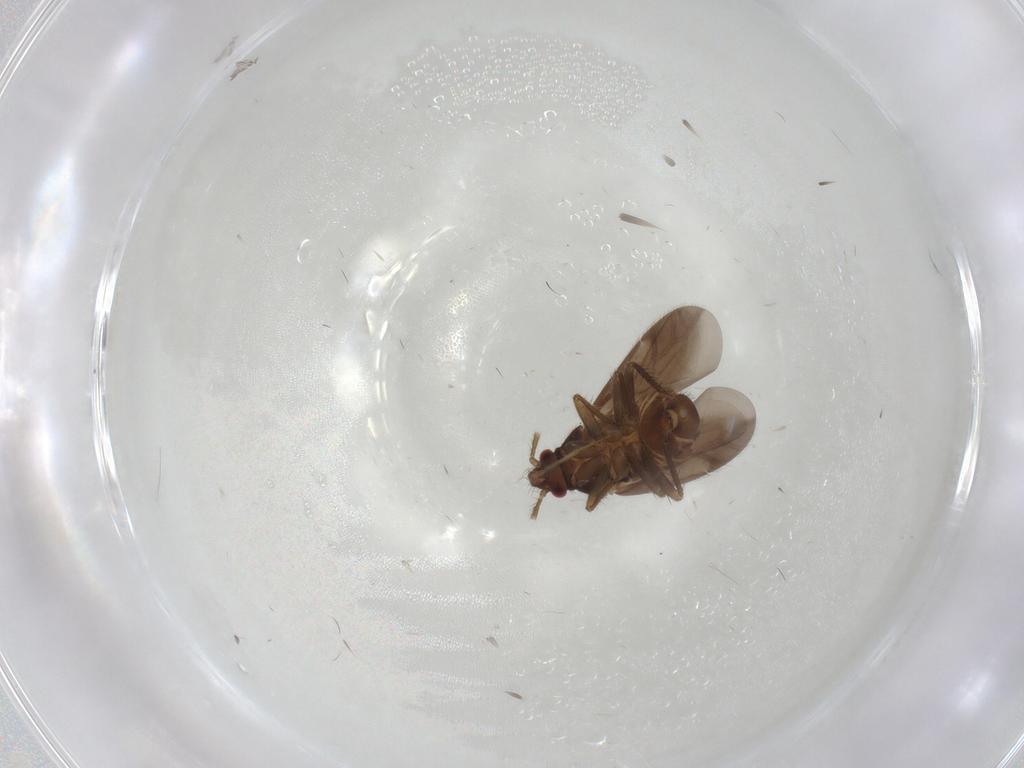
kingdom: Animalia
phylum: Arthropoda
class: Insecta
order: Hemiptera
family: Ceratocombidae
